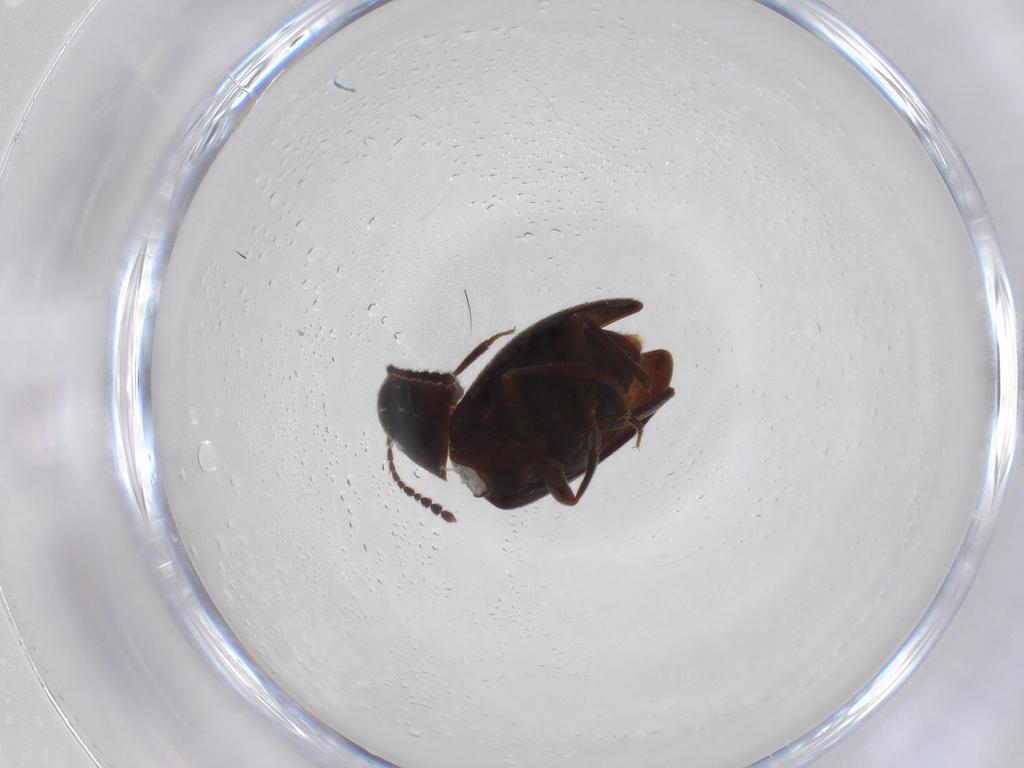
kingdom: Animalia
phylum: Arthropoda
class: Insecta
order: Coleoptera
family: Leiodidae
